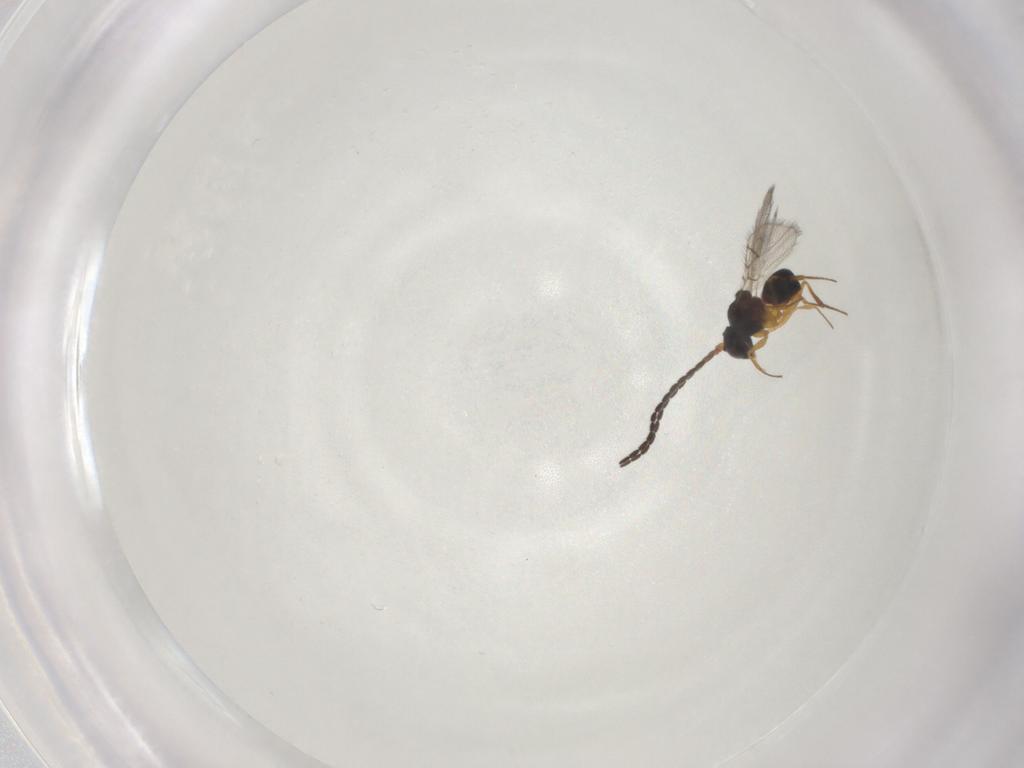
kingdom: Animalia
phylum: Arthropoda
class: Insecta
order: Hymenoptera
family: Figitidae
